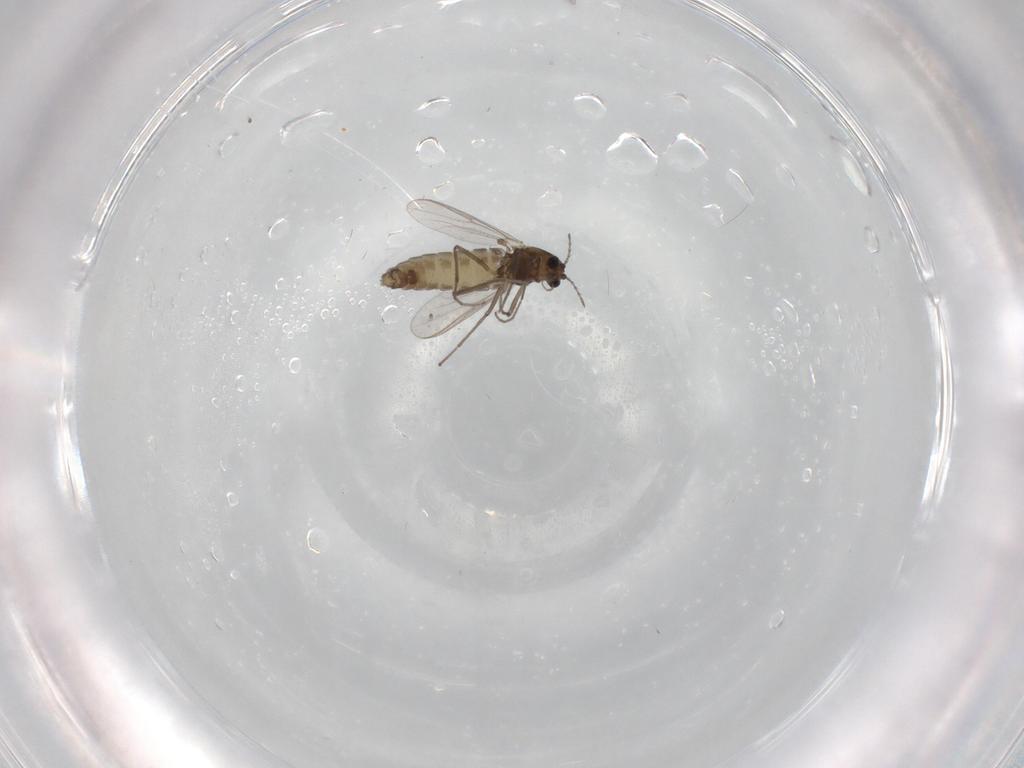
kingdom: Animalia
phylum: Arthropoda
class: Insecta
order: Diptera
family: Chironomidae
